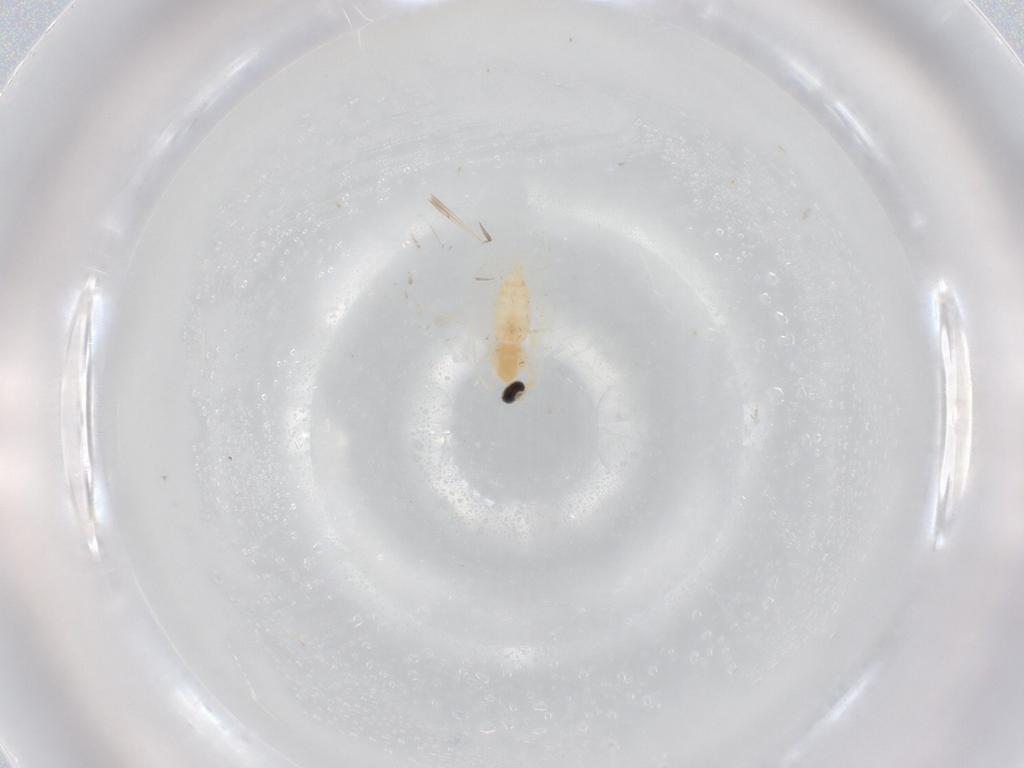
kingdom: Animalia
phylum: Arthropoda
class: Insecta
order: Diptera
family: Cecidomyiidae
